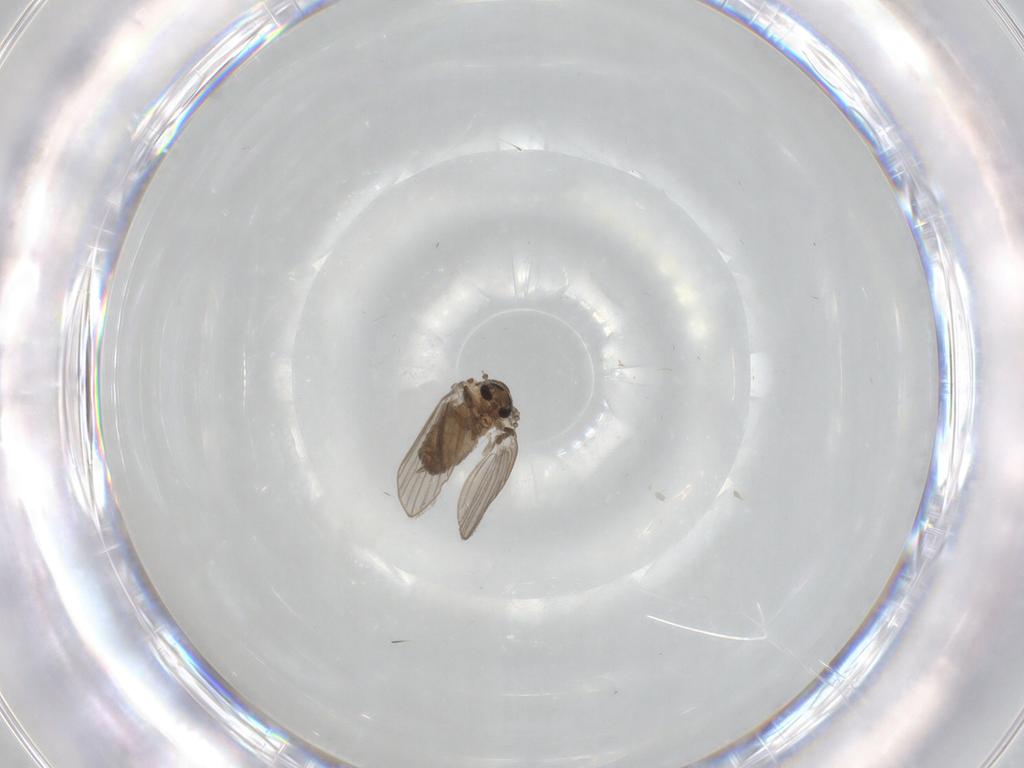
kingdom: Animalia
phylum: Arthropoda
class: Insecta
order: Diptera
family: Psychodidae
